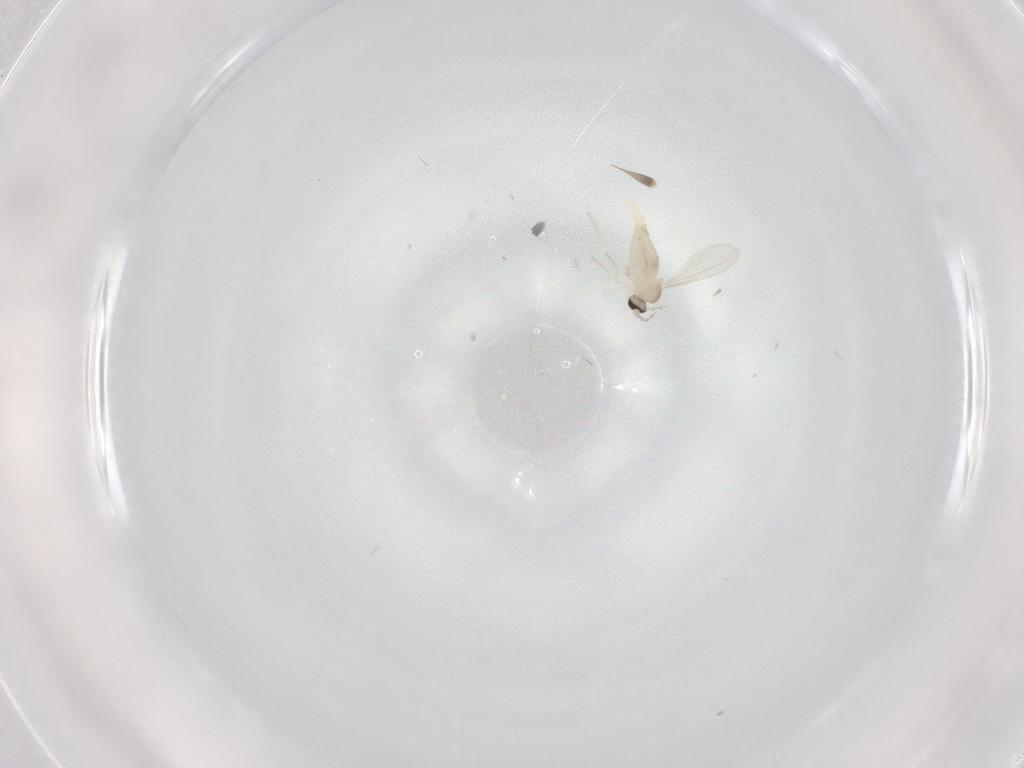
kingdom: Animalia
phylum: Arthropoda
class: Insecta
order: Diptera
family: Cecidomyiidae
